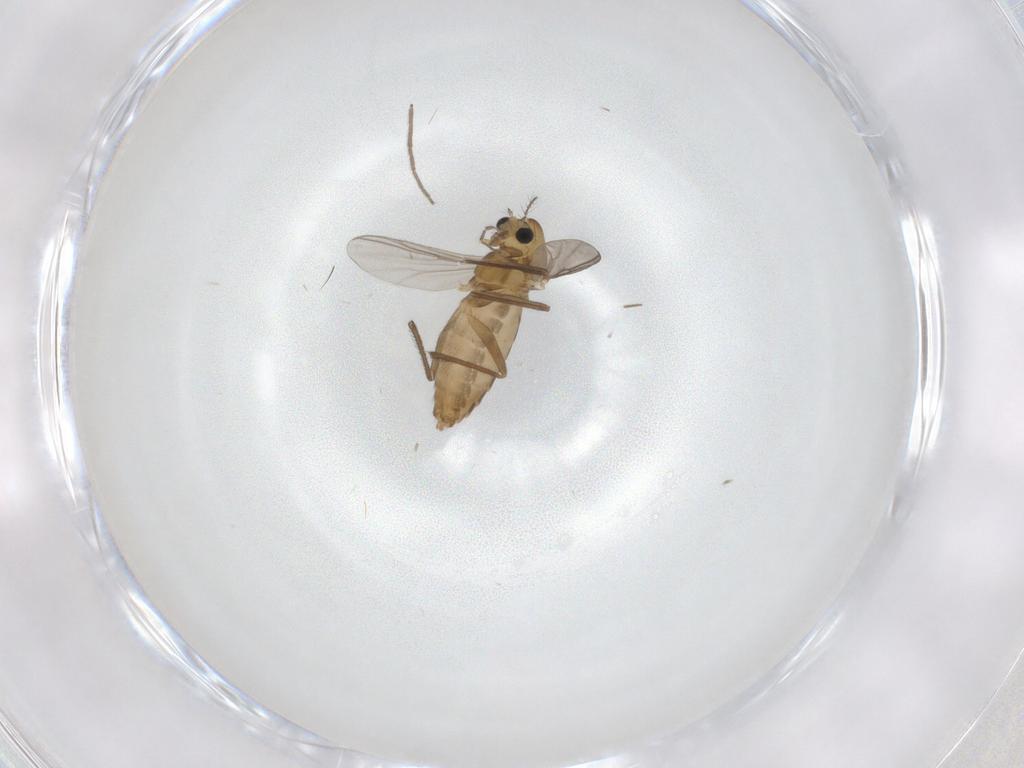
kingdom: Animalia
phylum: Arthropoda
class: Insecta
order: Diptera
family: Chironomidae
